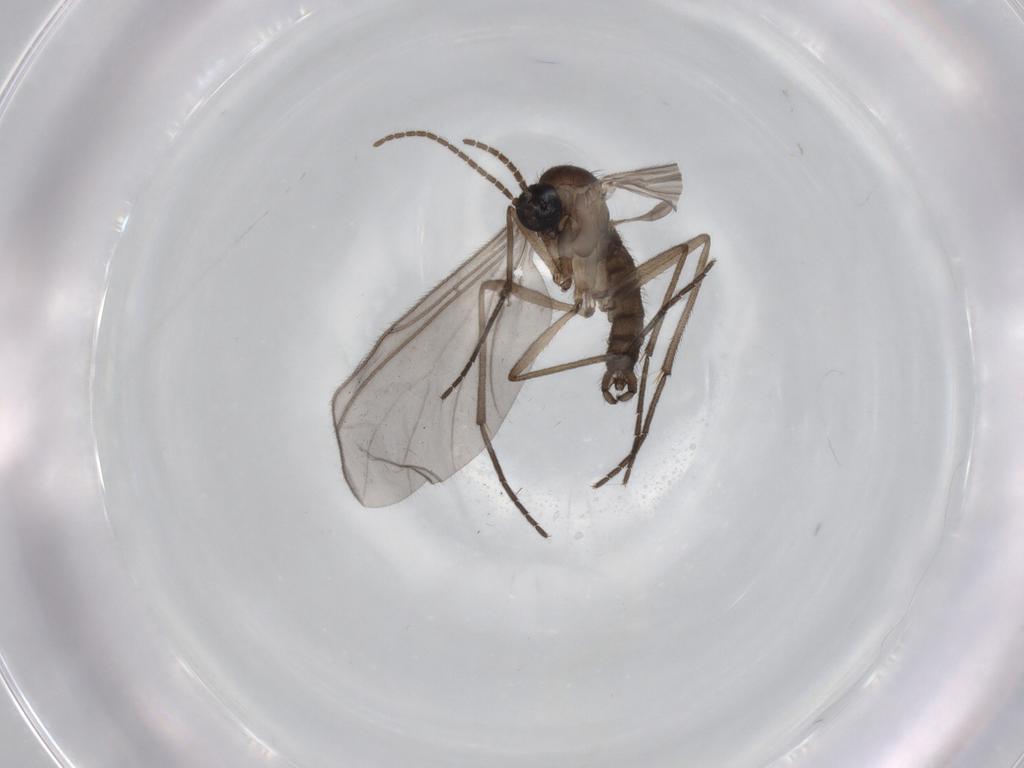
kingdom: Animalia
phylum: Arthropoda
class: Insecta
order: Diptera
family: Sciaridae
